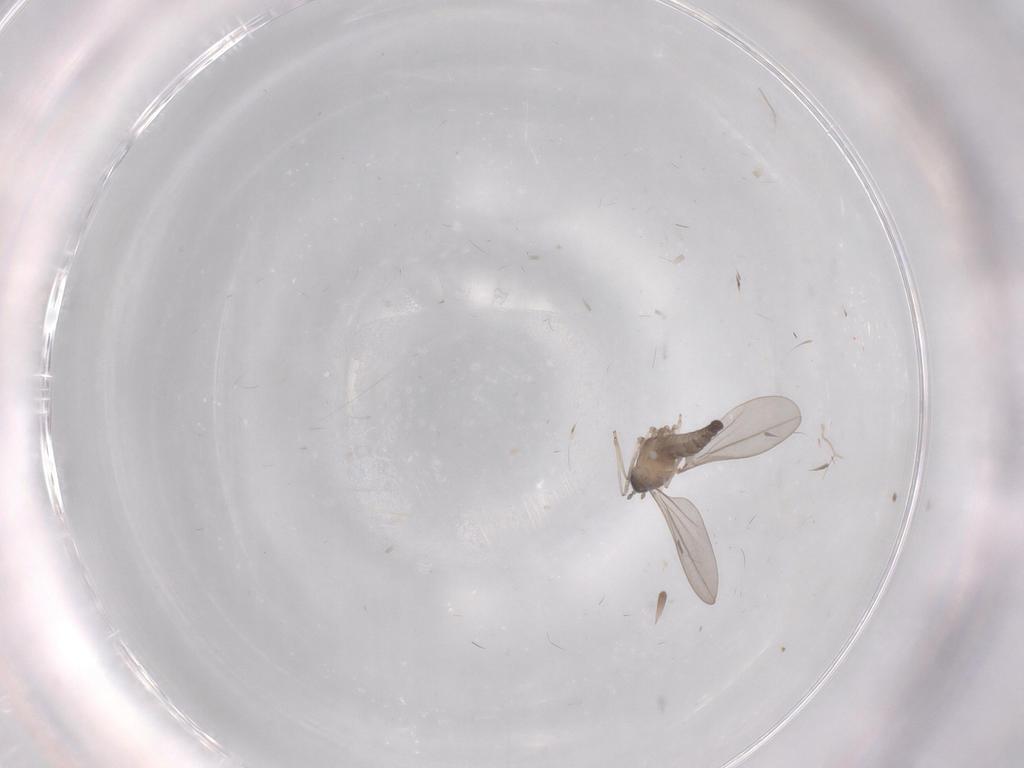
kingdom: Animalia
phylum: Arthropoda
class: Insecta
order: Diptera
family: Cecidomyiidae
